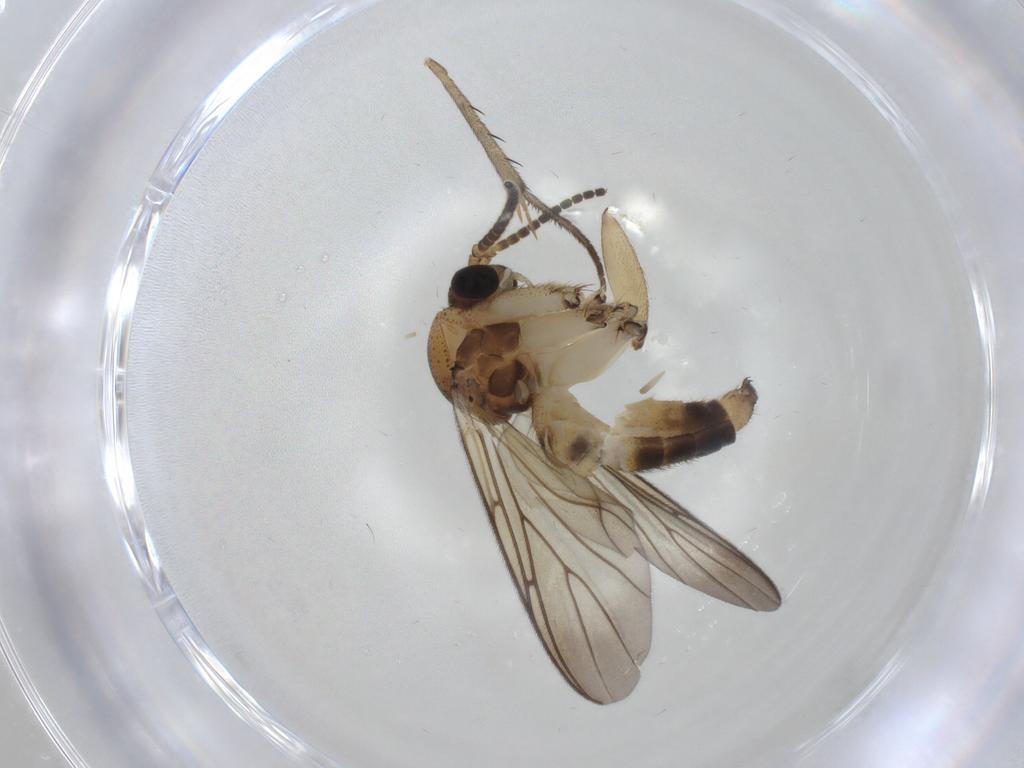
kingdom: Animalia
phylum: Arthropoda
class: Insecta
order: Diptera
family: Mycetophilidae
